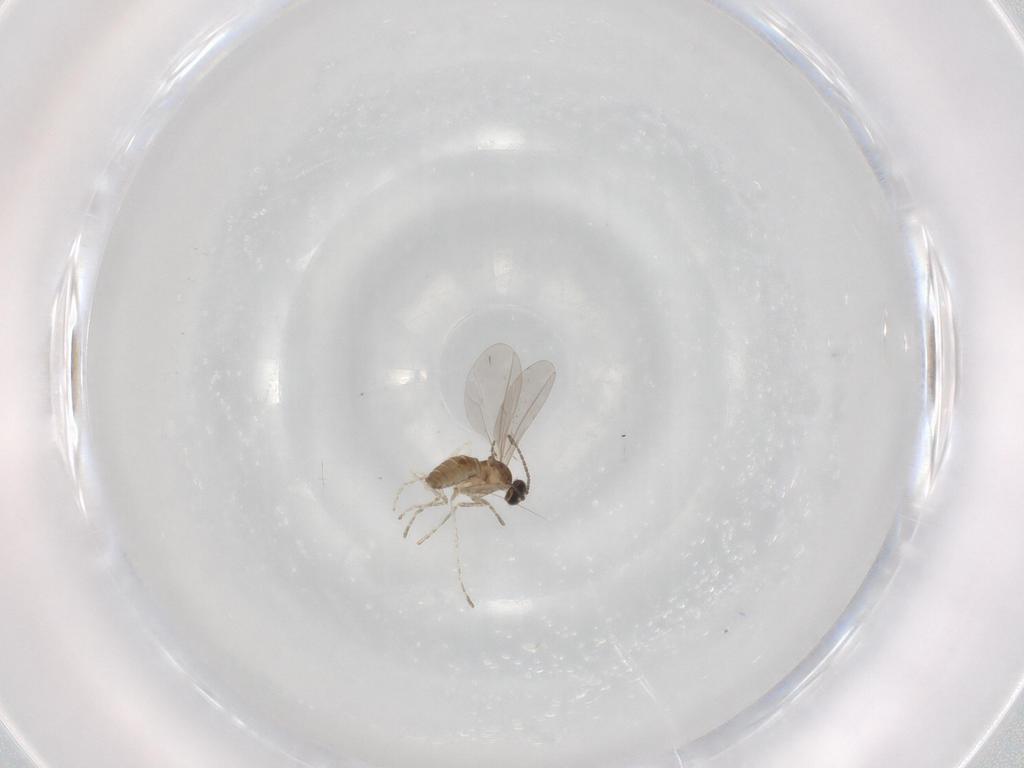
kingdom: Animalia
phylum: Arthropoda
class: Insecta
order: Diptera
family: Cecidomyiidae
